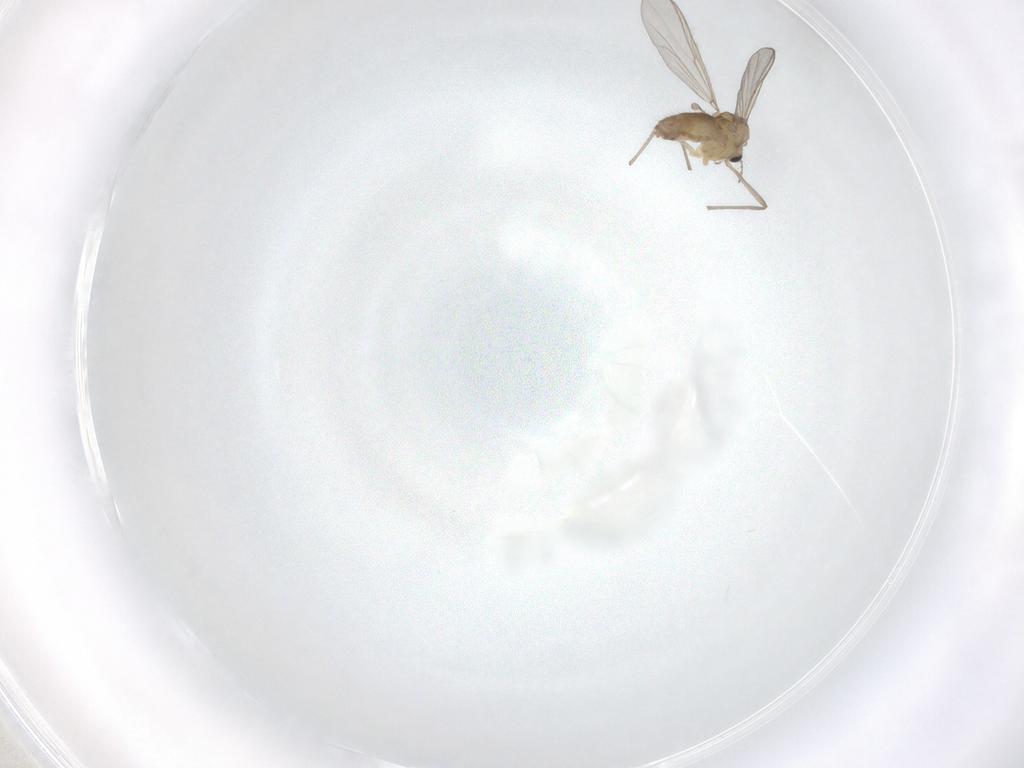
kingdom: Animalia
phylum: Arthropoda
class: Insecta
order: Diptera
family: Chironomidae
